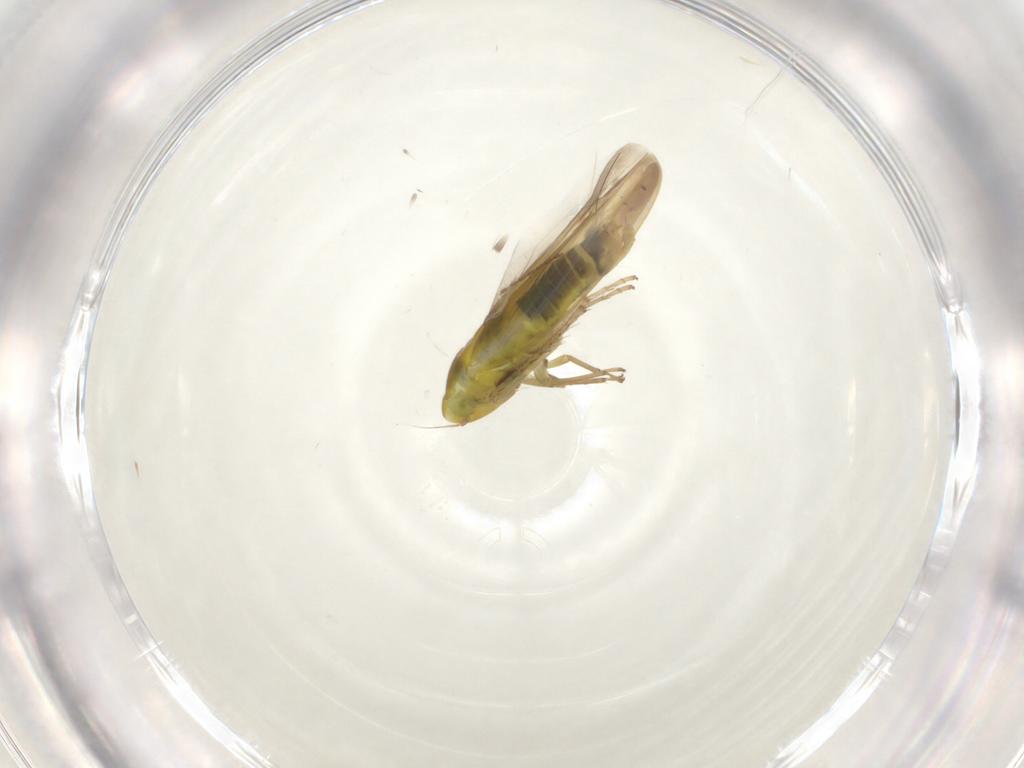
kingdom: Animalia
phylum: Arthropoda
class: Insecta
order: Hemiptera
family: Cicadellidae
